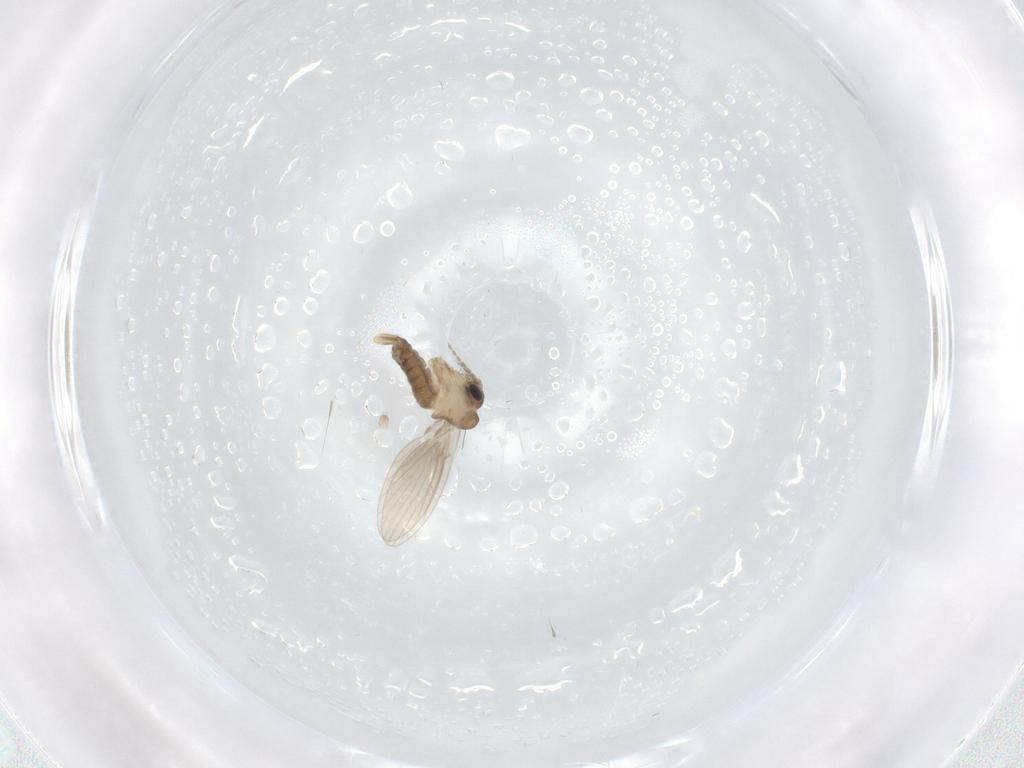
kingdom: Animalia
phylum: Arthropoda
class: Insecta
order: Diptera
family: Psychodidae
